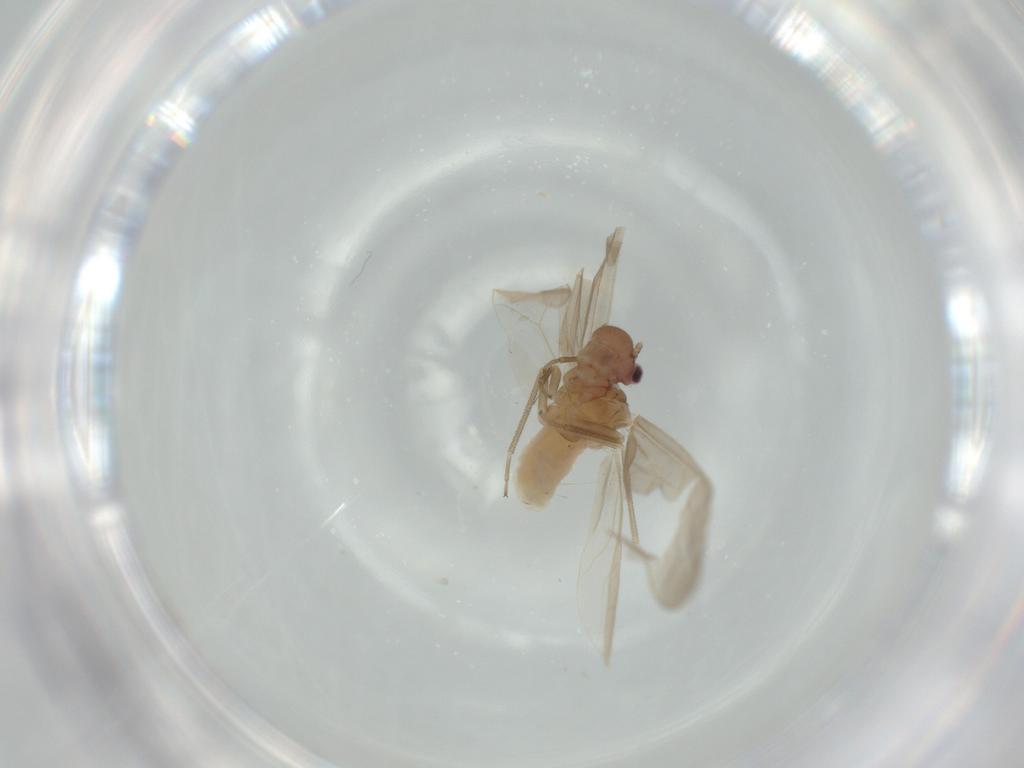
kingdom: Animalia
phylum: Arthropoda
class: Insecta
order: Psocodea
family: Caeciliusidae
